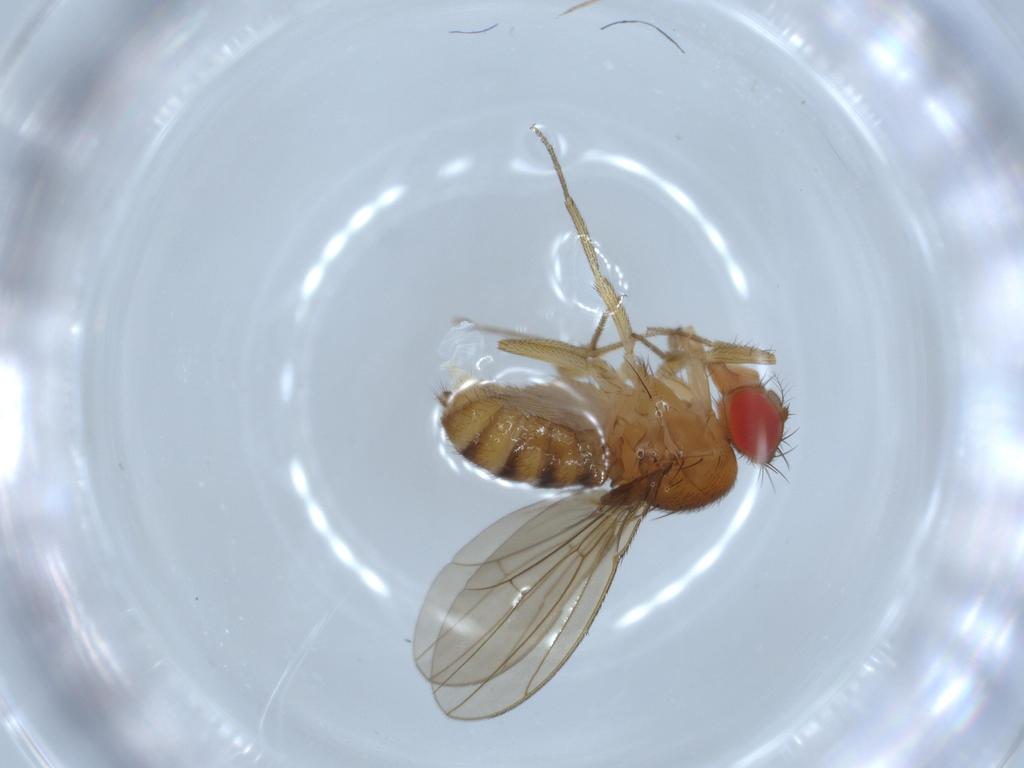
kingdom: Animalia
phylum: Arthropoda
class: Insecta
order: Diptera
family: Drosophilidae
